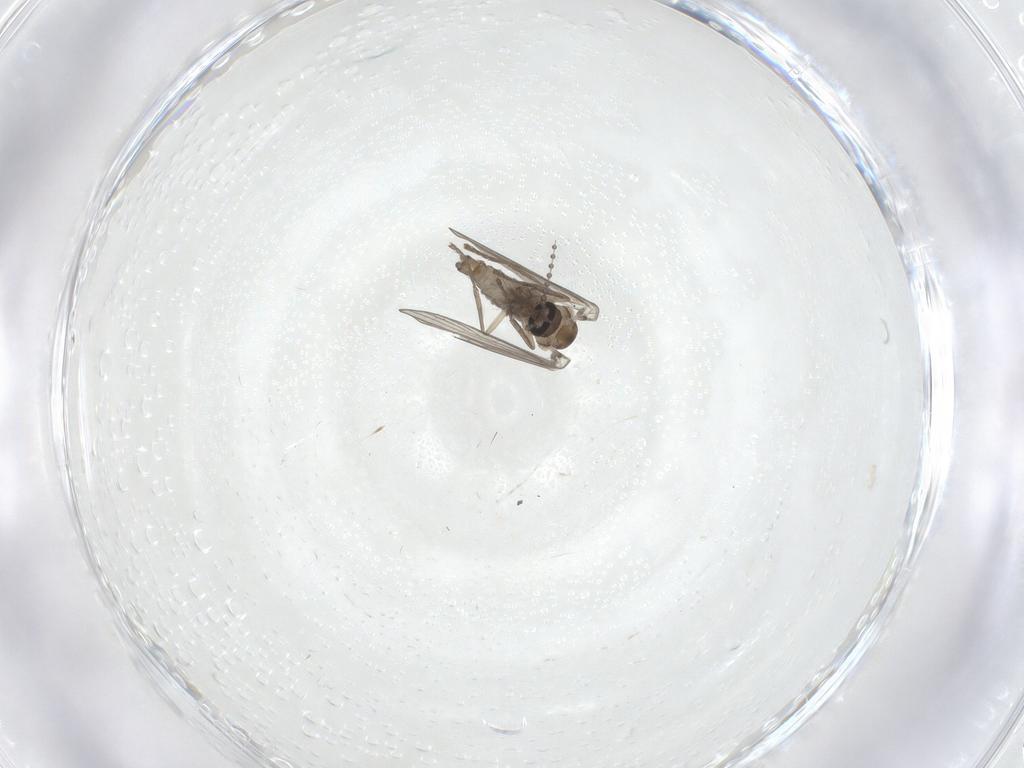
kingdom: Animalia
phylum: Arthropoda
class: Insecta
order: Diptera
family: Psychodidae
